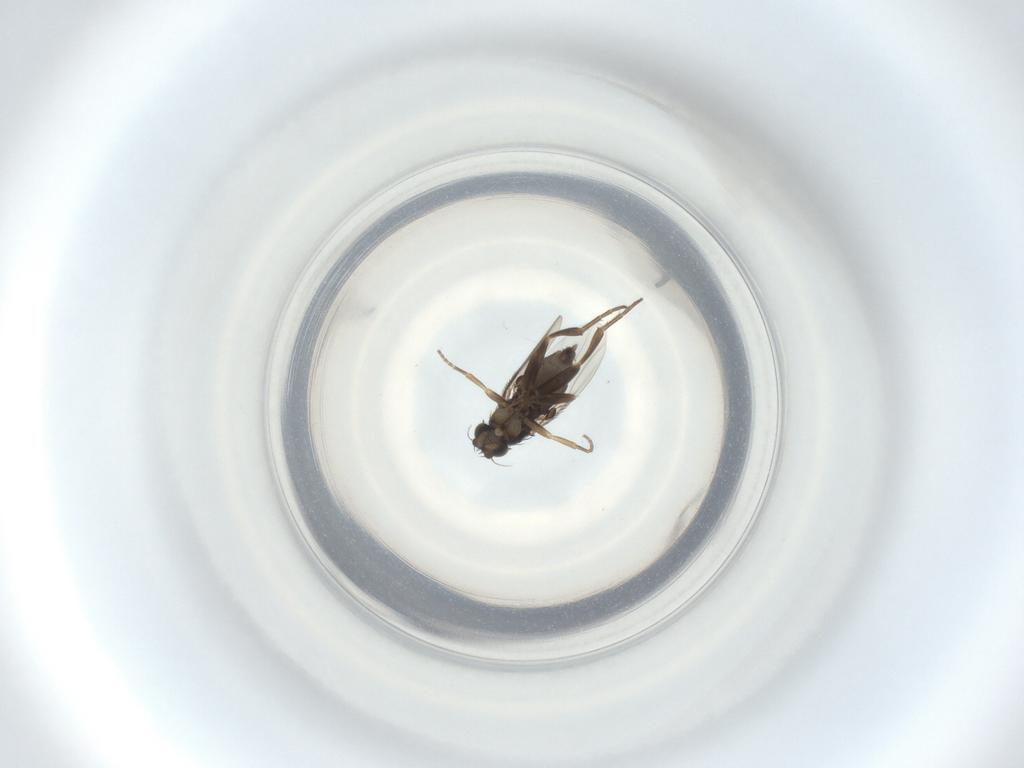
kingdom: Animalia
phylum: Arthropoda
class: Insecta
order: Diptera
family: Phoridae
